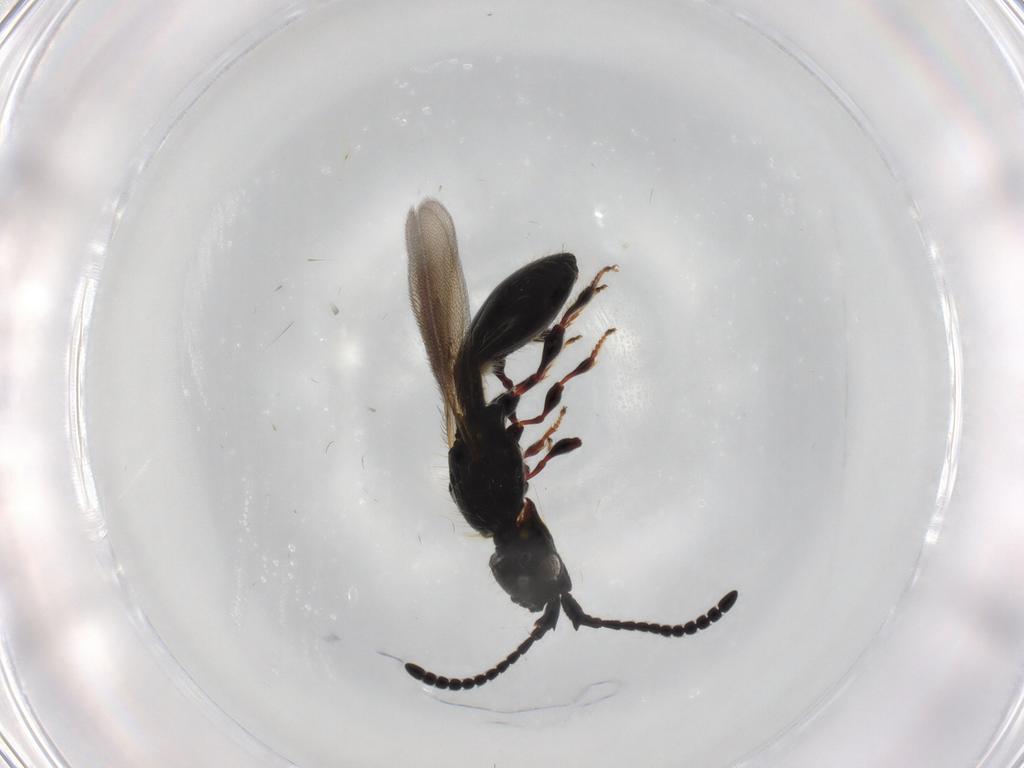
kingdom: Animalia
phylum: Arthropoda
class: Insecta
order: Hymenoptera
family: Diapriidae
